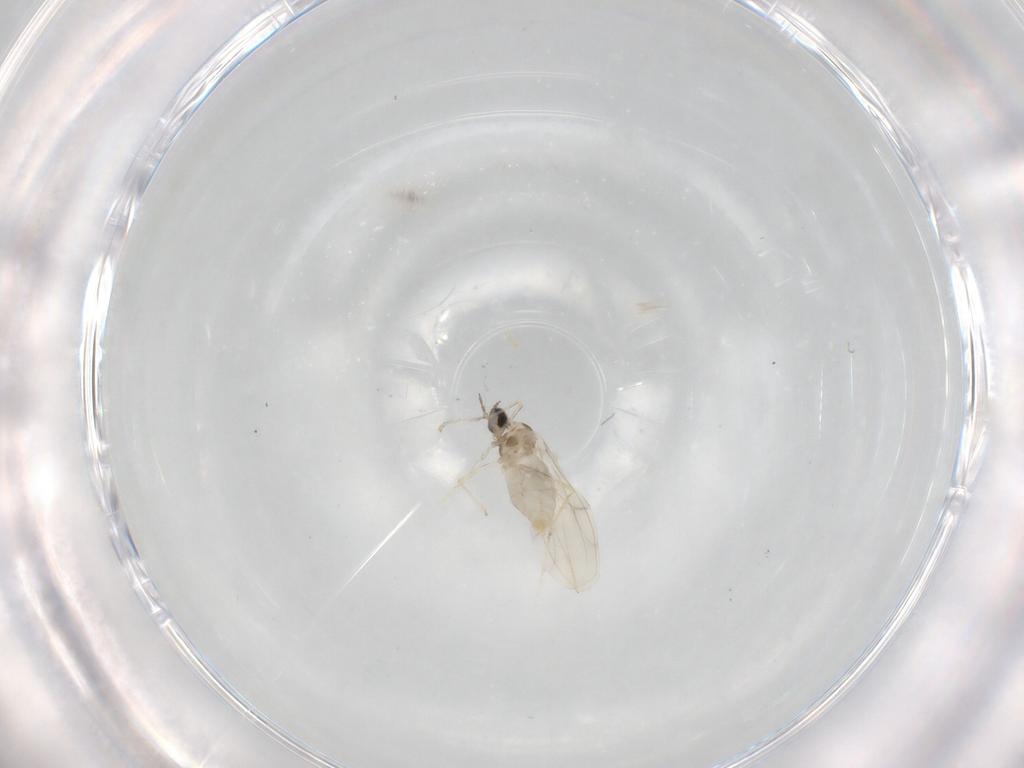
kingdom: Animalia
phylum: Arthropoda
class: Insecta
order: Diptera
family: Cecidomyiidae
